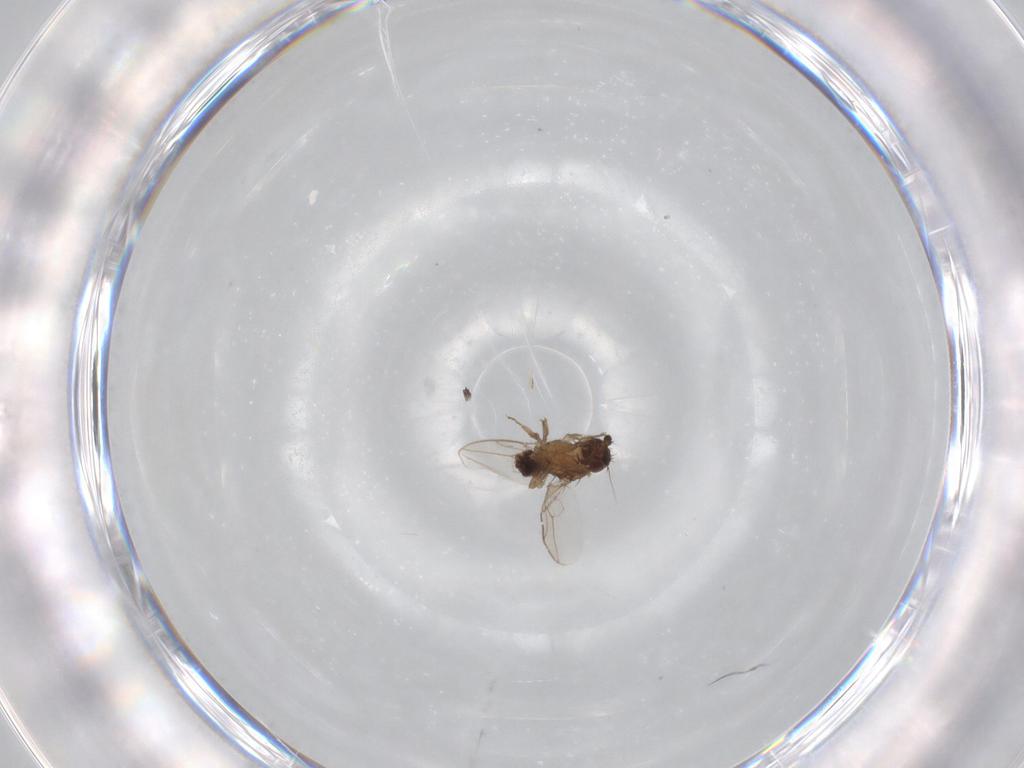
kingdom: Animalia
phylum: Arthropoda
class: Insecta
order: Diptera
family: Sphaeroceridae
